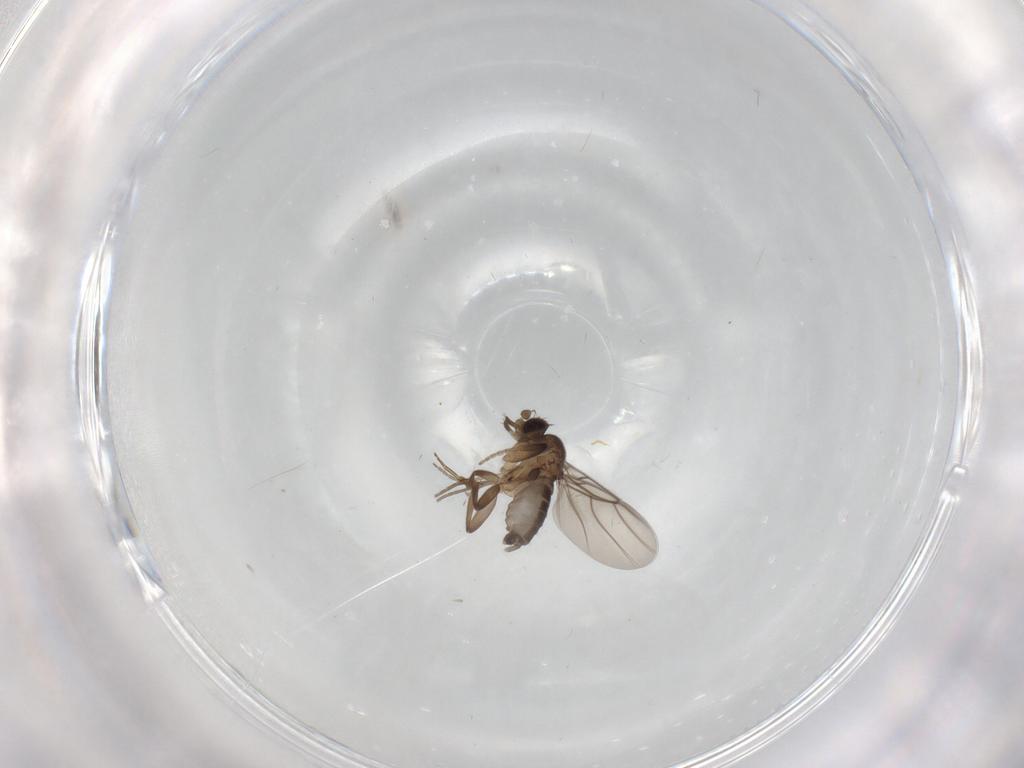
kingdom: Animalia
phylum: Arthropoda
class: Insecta
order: Diptera
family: Phoridae
